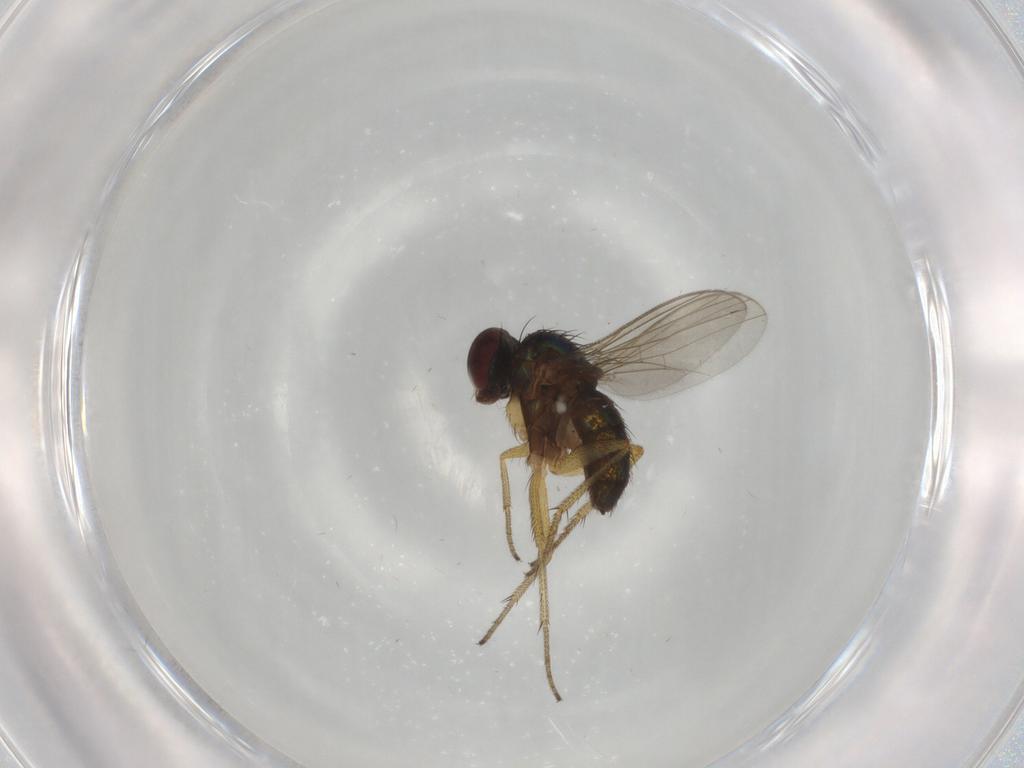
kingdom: Animalia
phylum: Arthropoda
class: Insecta
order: Diptera
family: Dolichopodidae
